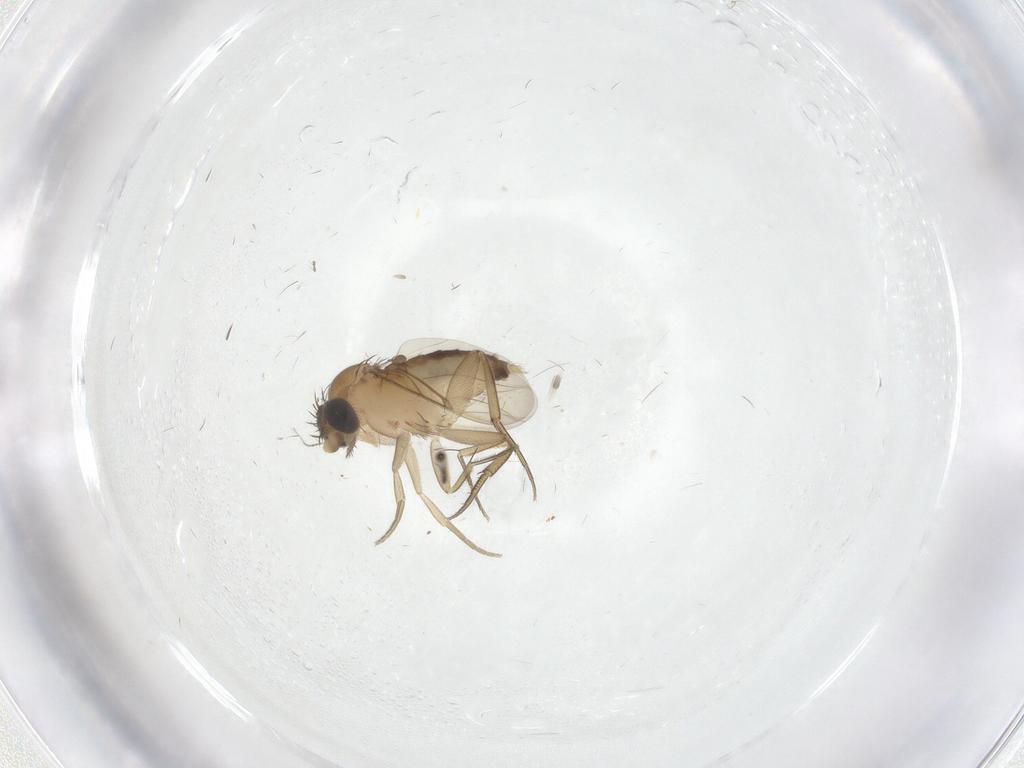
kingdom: Animalia
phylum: Arthropoda
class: Insecta
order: Diptera
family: Sciaridae
